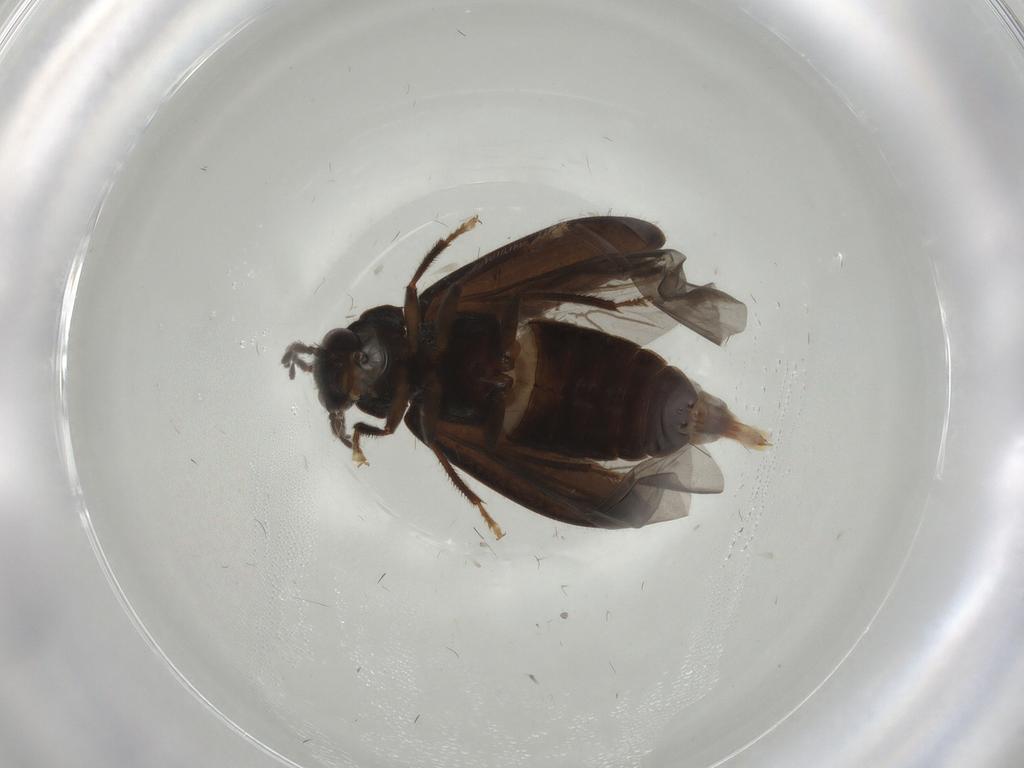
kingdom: Animalia
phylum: Arthropoda
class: Insecta
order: Coleoptera
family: Ptilodactylidae
